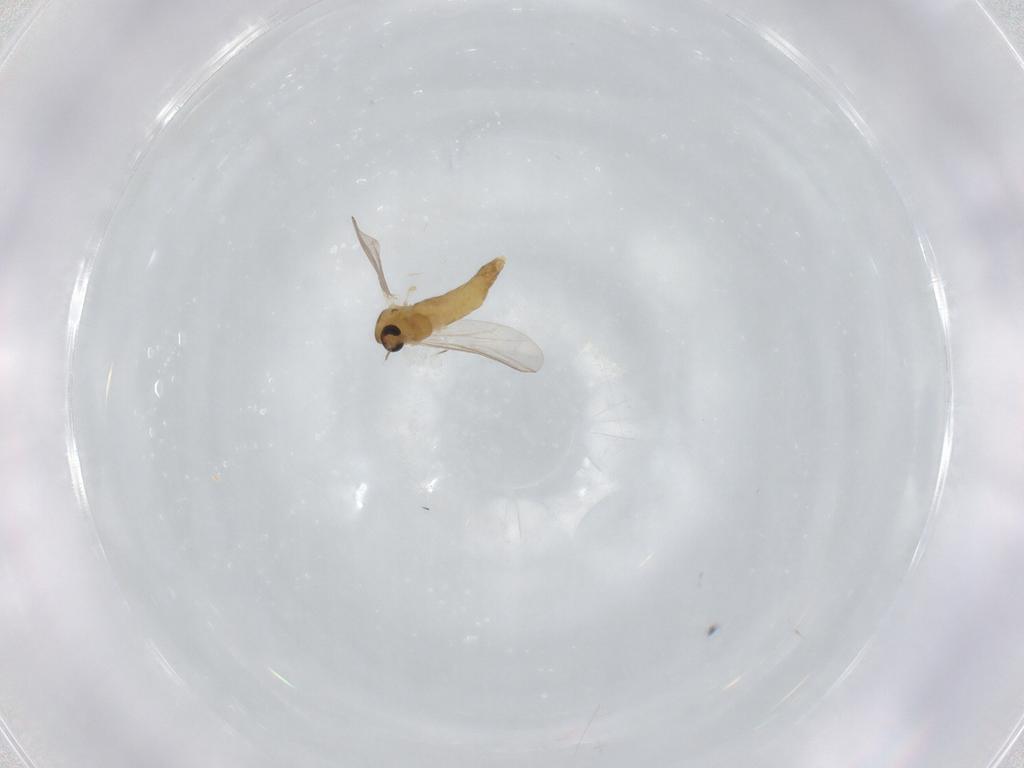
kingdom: Animalia
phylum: Arthropoda
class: Insecta
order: Diptera
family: Chironomidae
